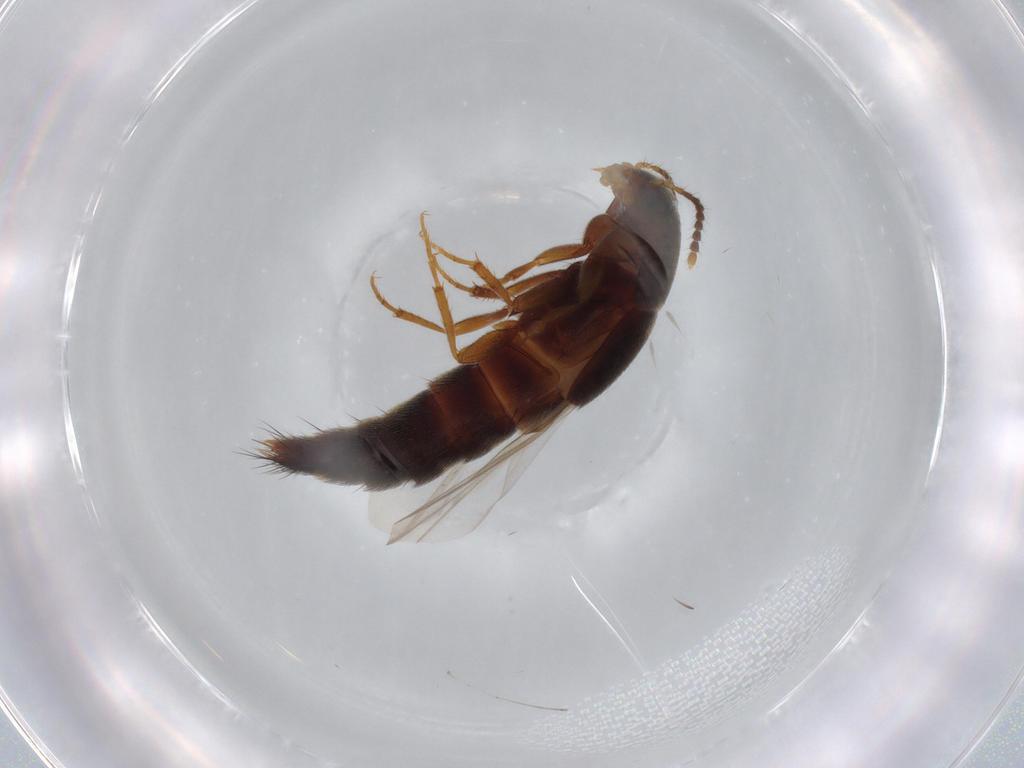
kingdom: Animalia
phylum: Arthropoda
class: Insecta
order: Coleoptera
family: Staphylinidae
